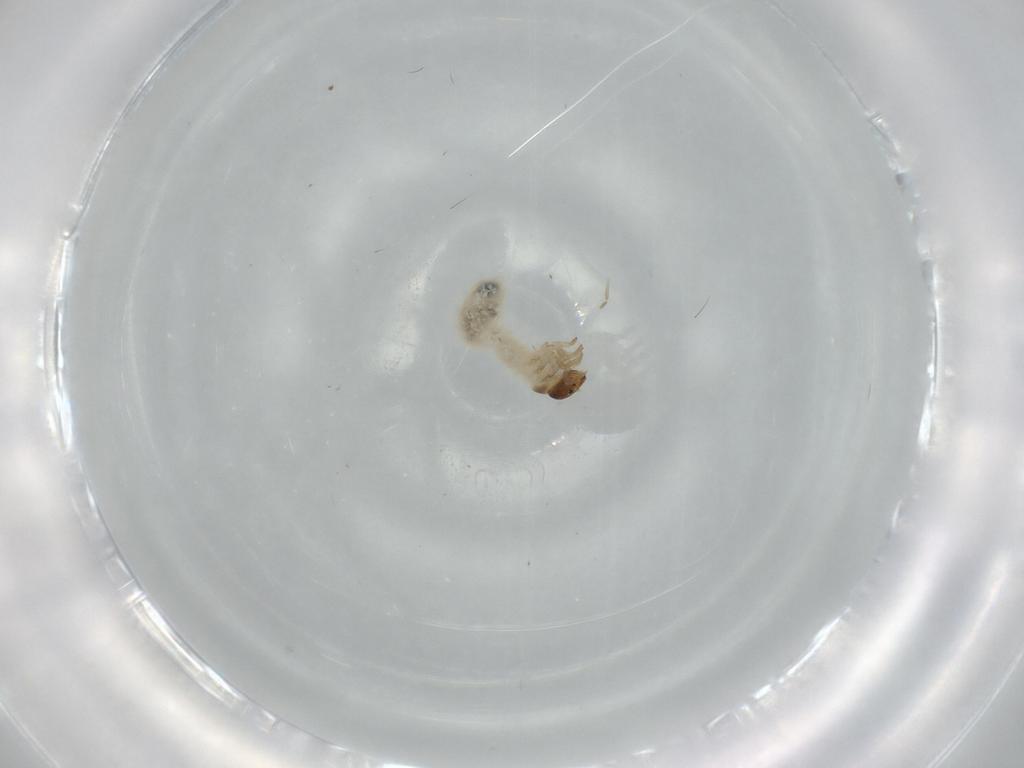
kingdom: Animalia
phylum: Arthropoda
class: Insecta
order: Coleoptera
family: Chrysomelidae
